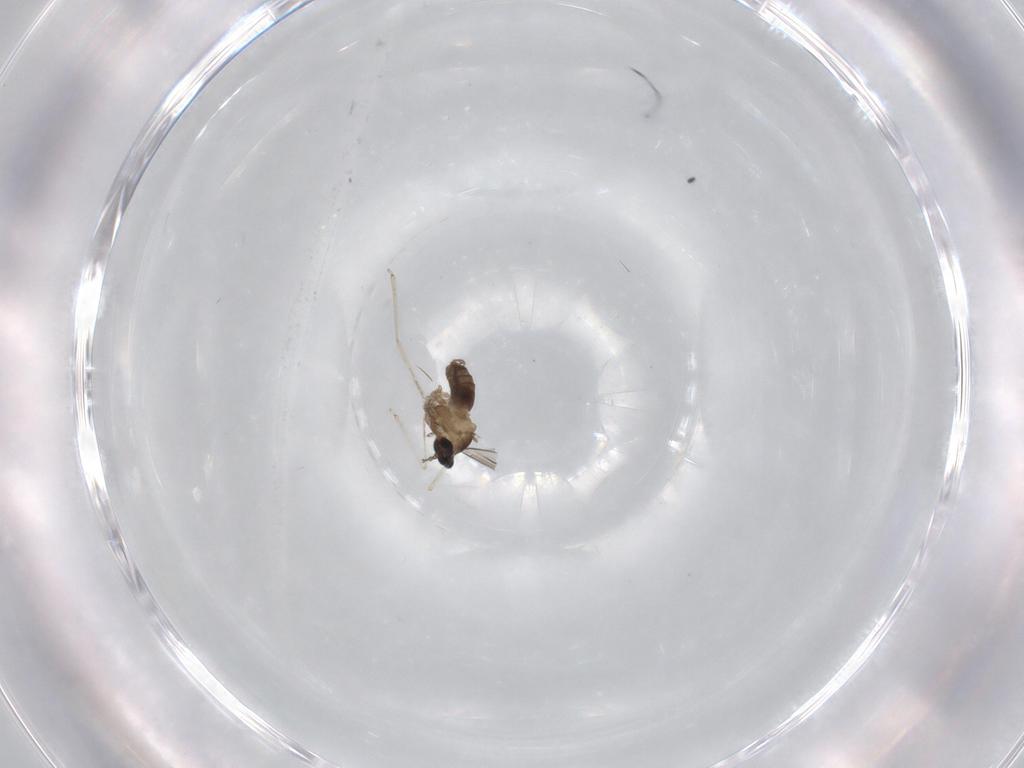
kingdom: Animalia
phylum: Arthropoda
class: Insecta
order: Diptera
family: Cecidomyiidae
